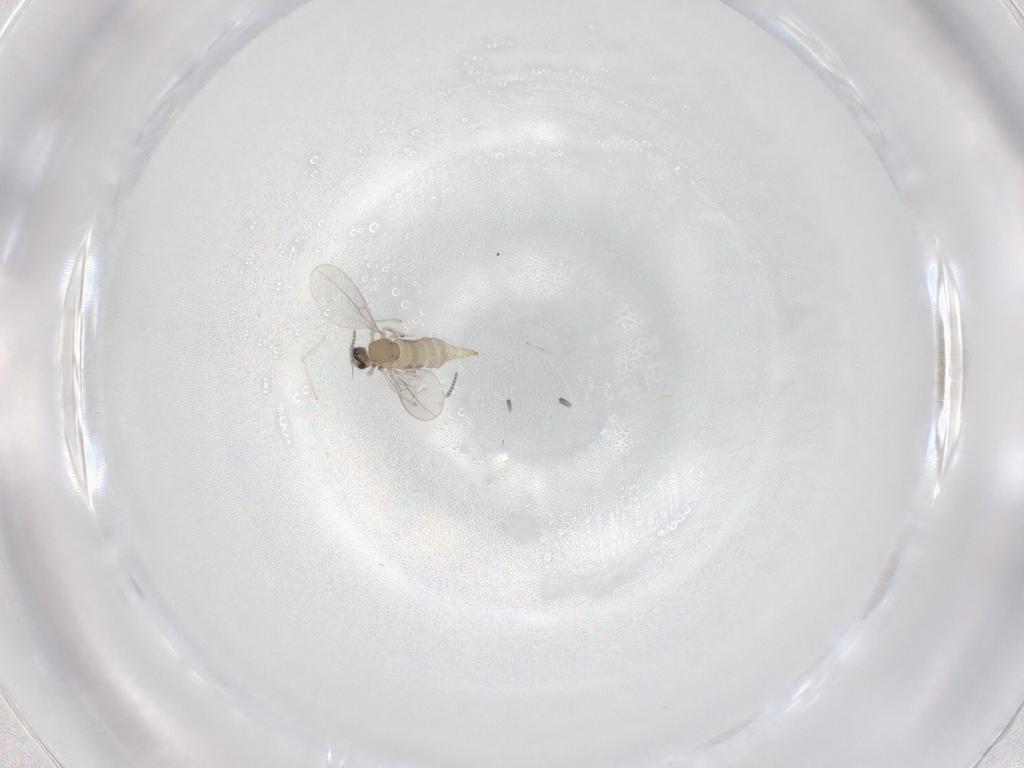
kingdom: Animalia
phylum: Arthropoda
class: Insecta
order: Diptera
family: Cecidomyiidae
